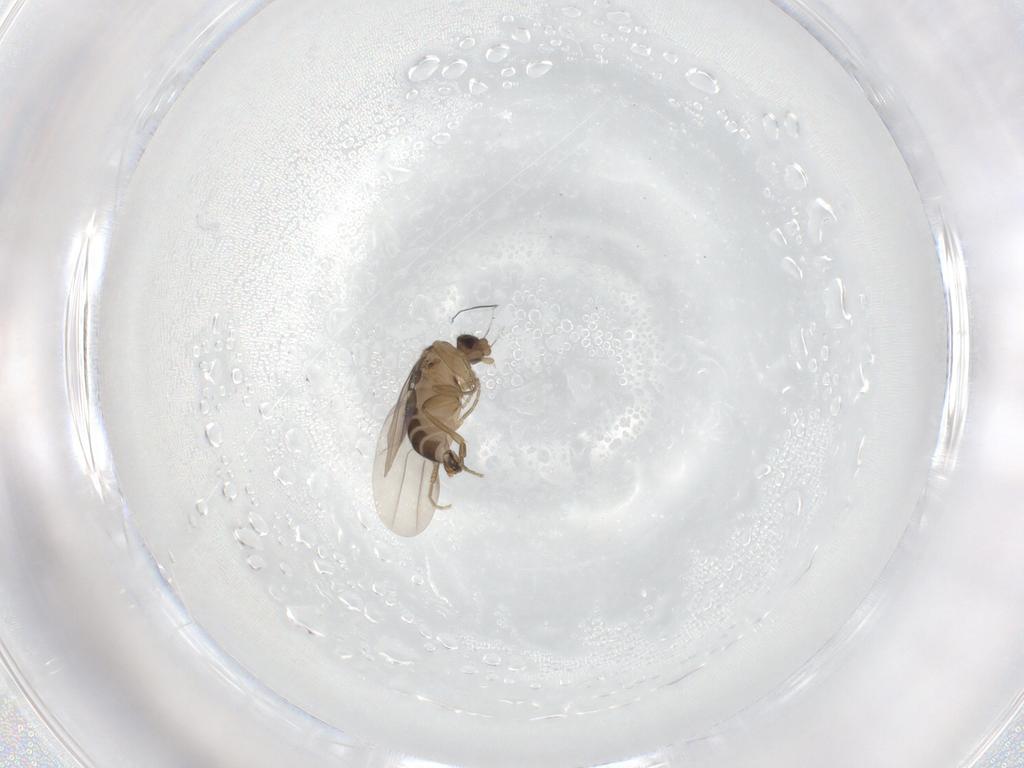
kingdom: Animalia
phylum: Arthropoda
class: Insecta
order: Diptera
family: Phoridae
